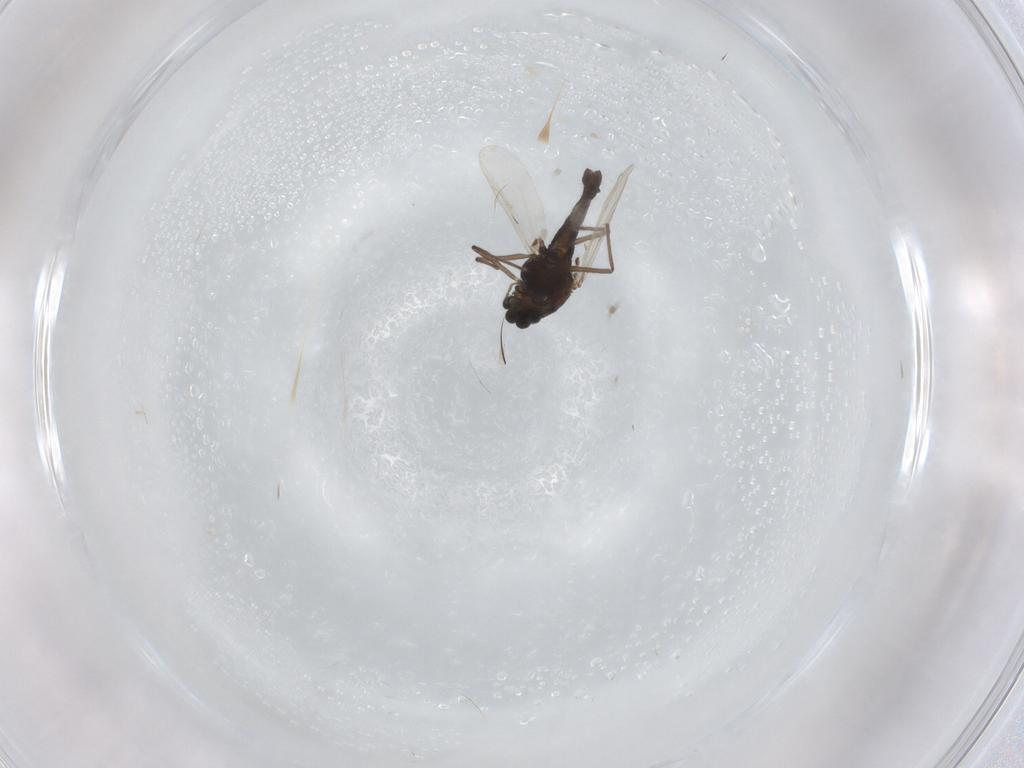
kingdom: Animalia
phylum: Arthropoda
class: Insecta
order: Diptera
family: Chironomidae
